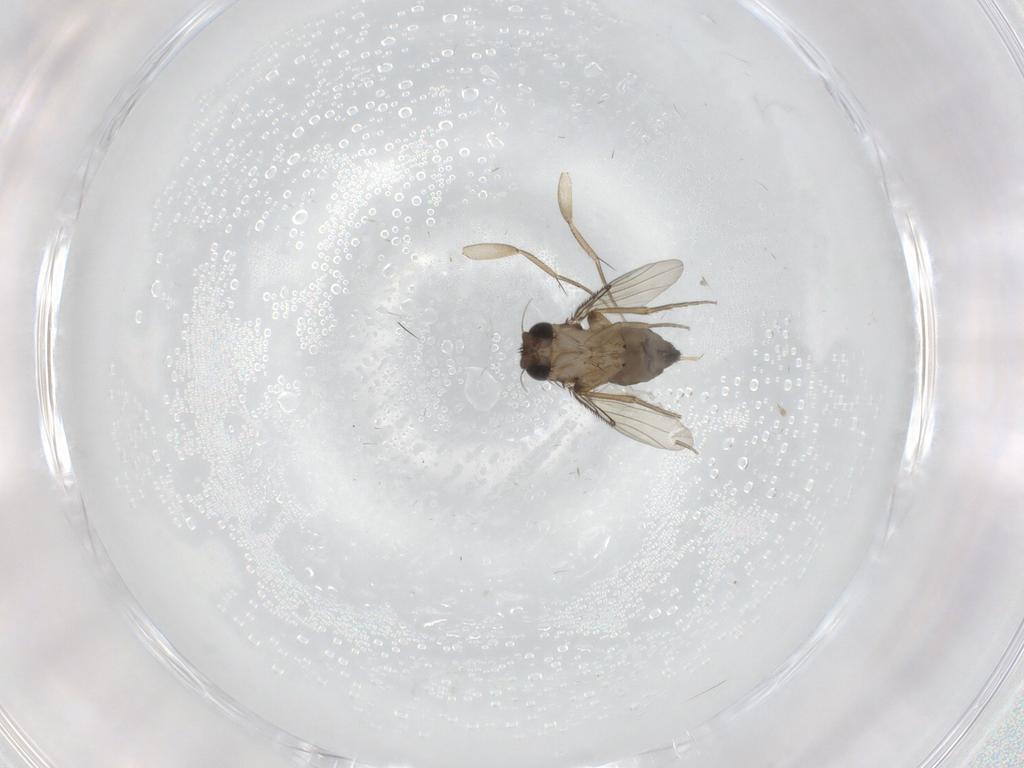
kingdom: Animalia
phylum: Arthropoda
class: Insecta
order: Diptera
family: Phoridae
